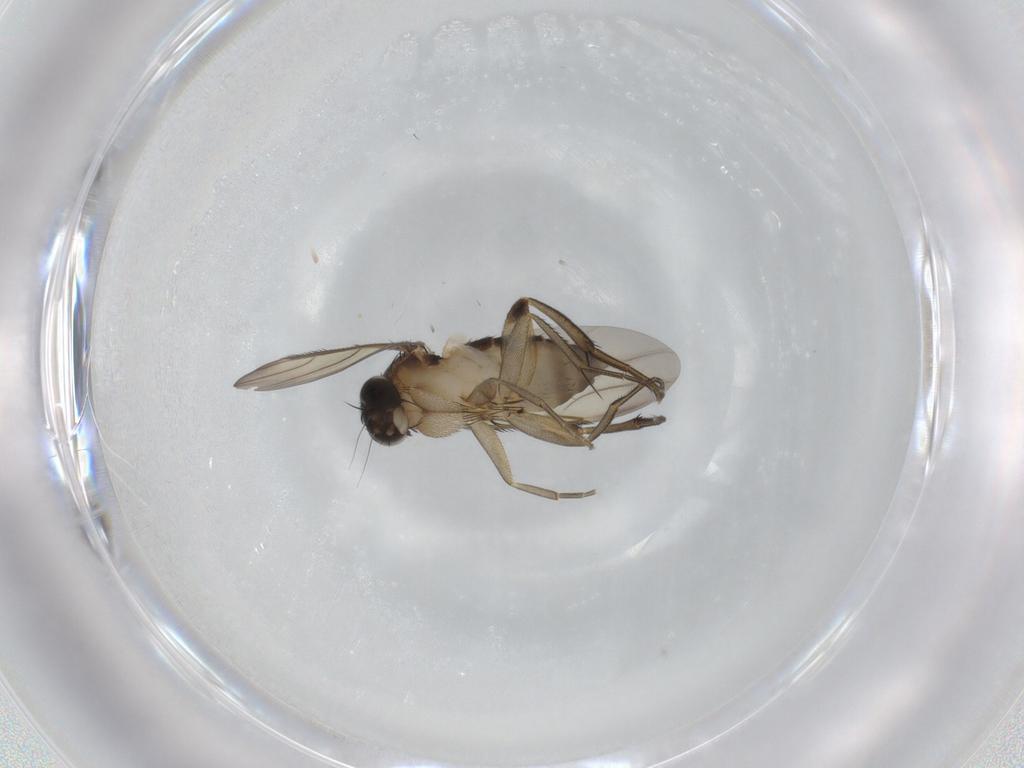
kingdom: Animalia
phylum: Arthropoda
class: Insecta
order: Diptera
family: Phoridae
